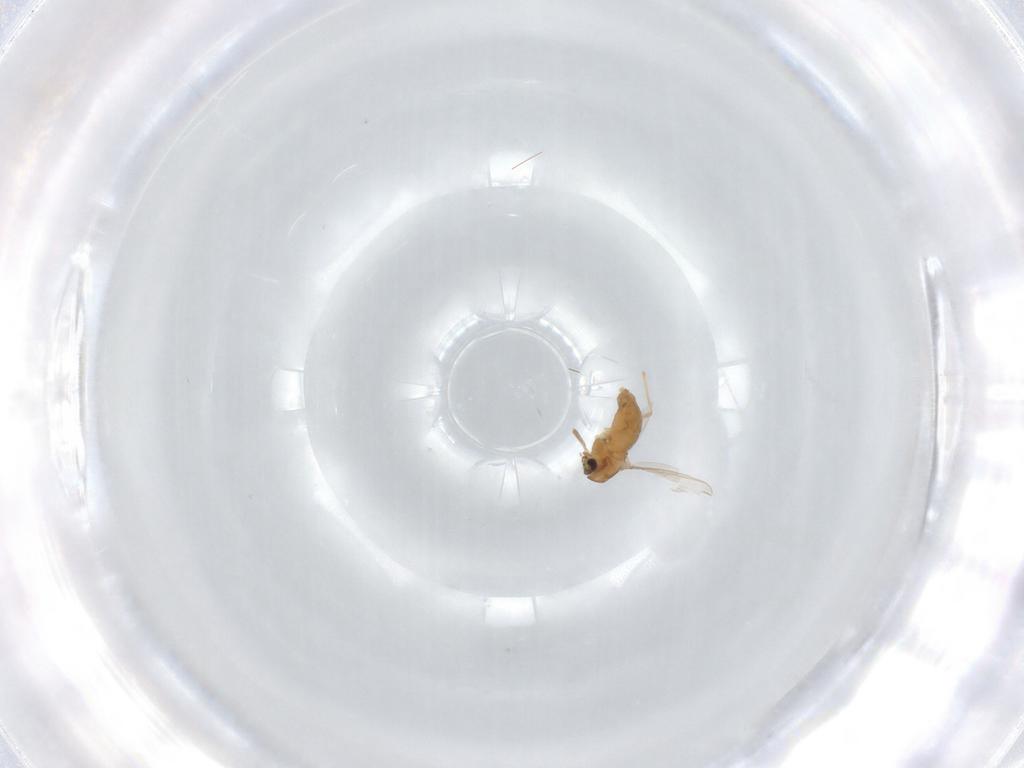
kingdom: Animalia
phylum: Arthropoda
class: Insecta
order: Diptera
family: Chironomidae
